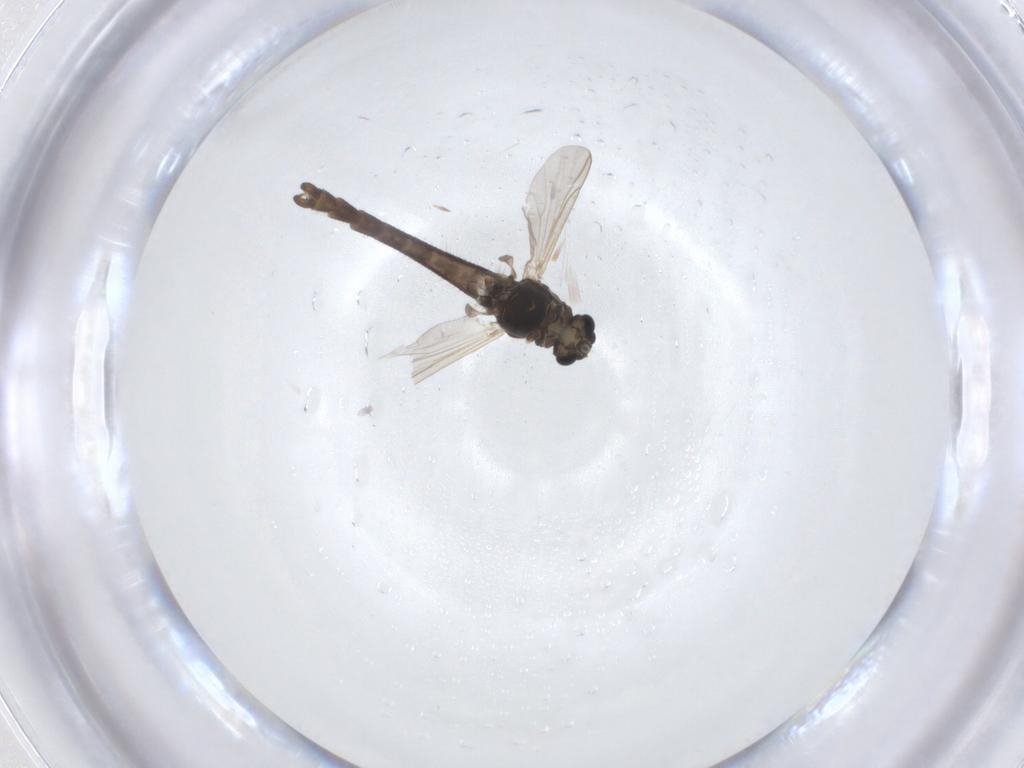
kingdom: Animalia
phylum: Arthropoda
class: Insecta
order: Diptera
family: Chironomidae
